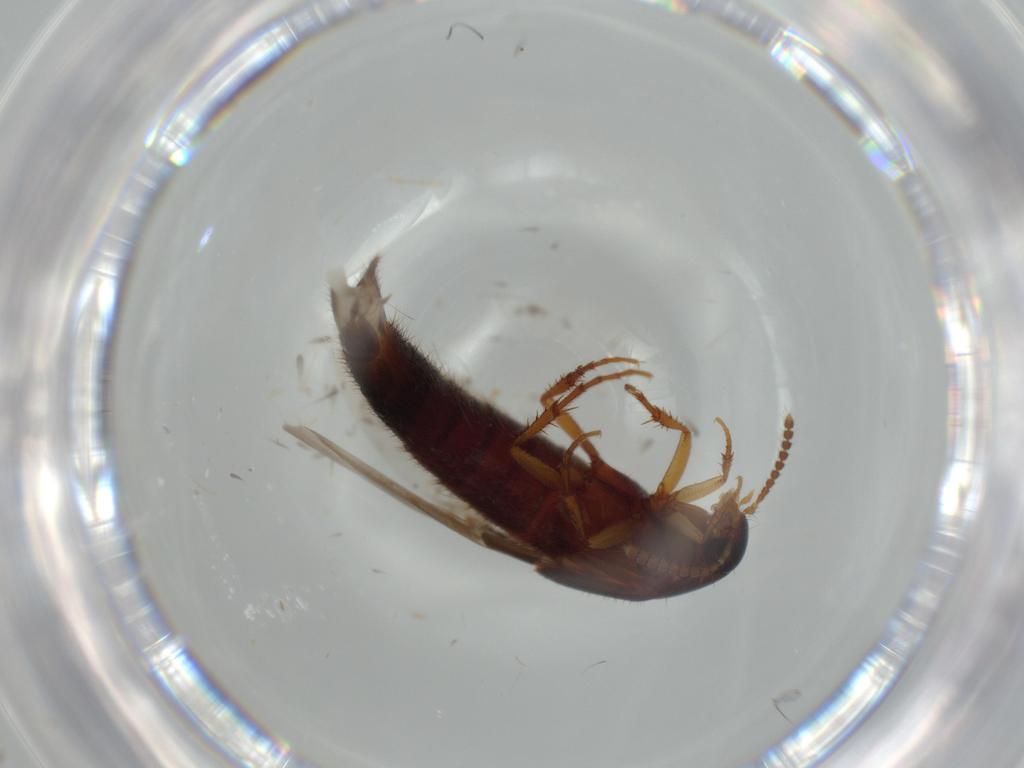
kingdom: Animalia
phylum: Arthropoda
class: Insecta
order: Coleoptera
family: Staphylinidae
